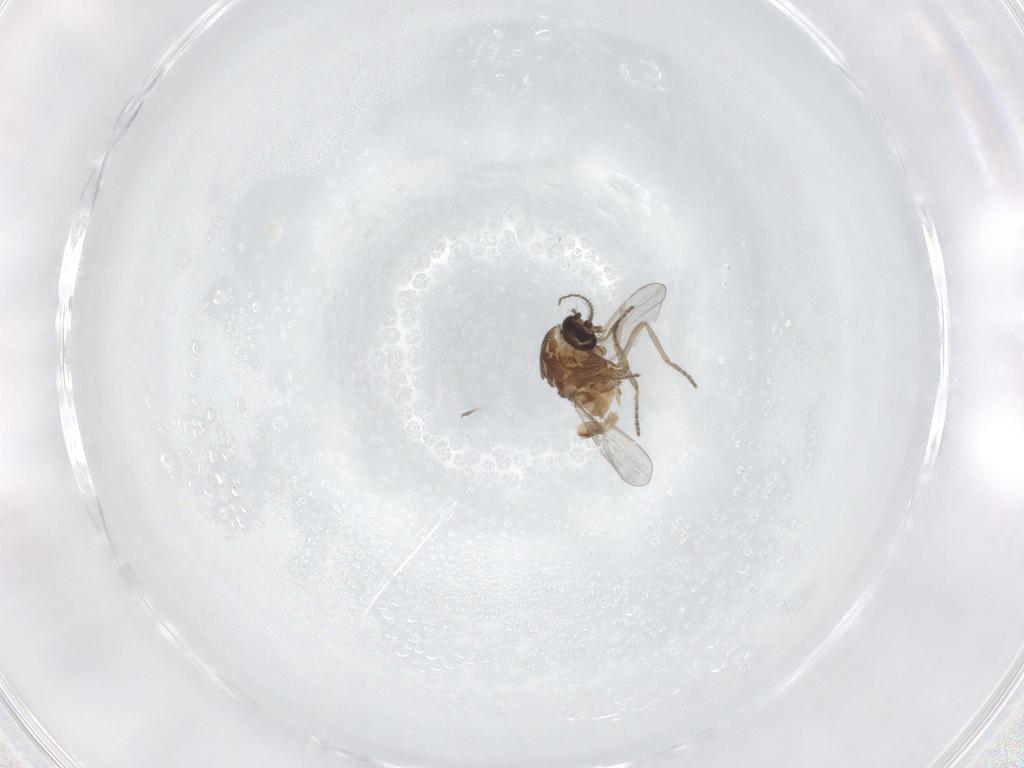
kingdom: Animalia
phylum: Arthropoda
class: Insecta
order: Diptera
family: Ceratopogonidae
